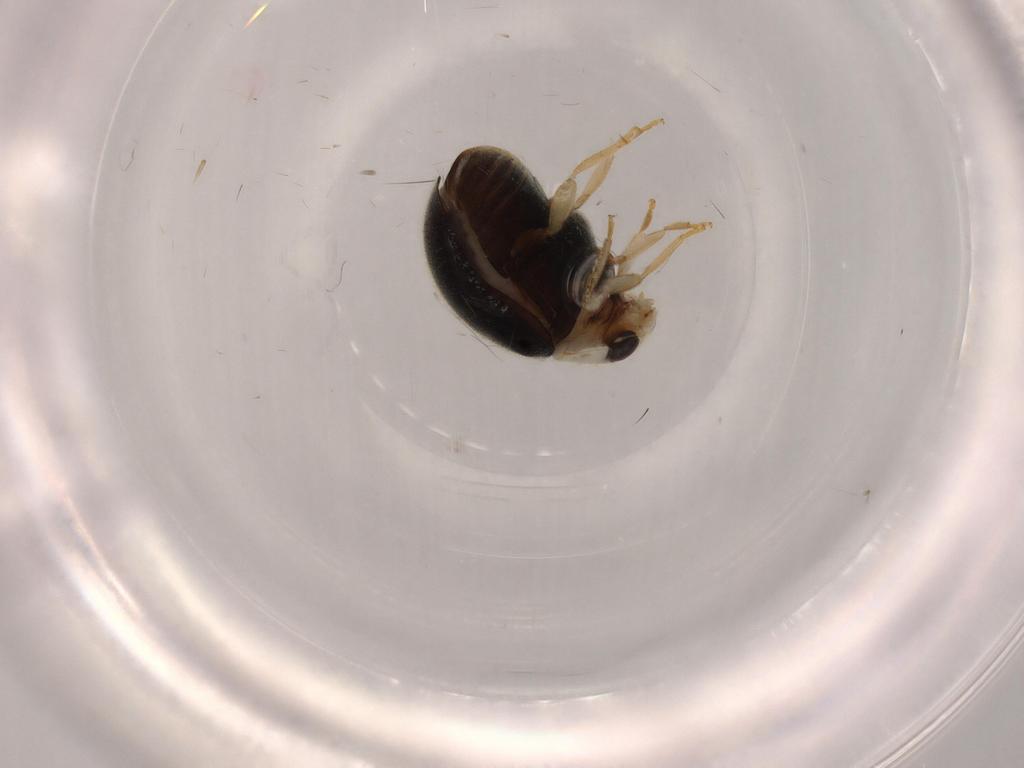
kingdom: Animalia
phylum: Arthropoda
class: Insecta
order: Coleoptera
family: Coccinellidae
